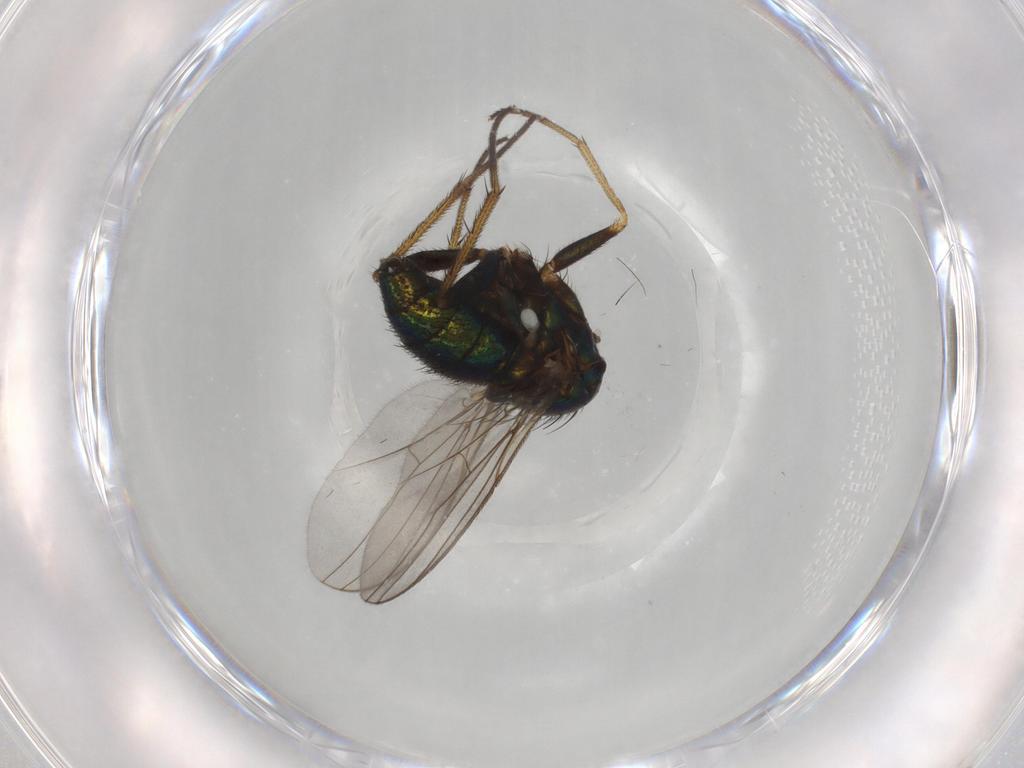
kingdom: Animalia
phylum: Arthropoda
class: Insecta
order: Diptera
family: Dolichopodidae
